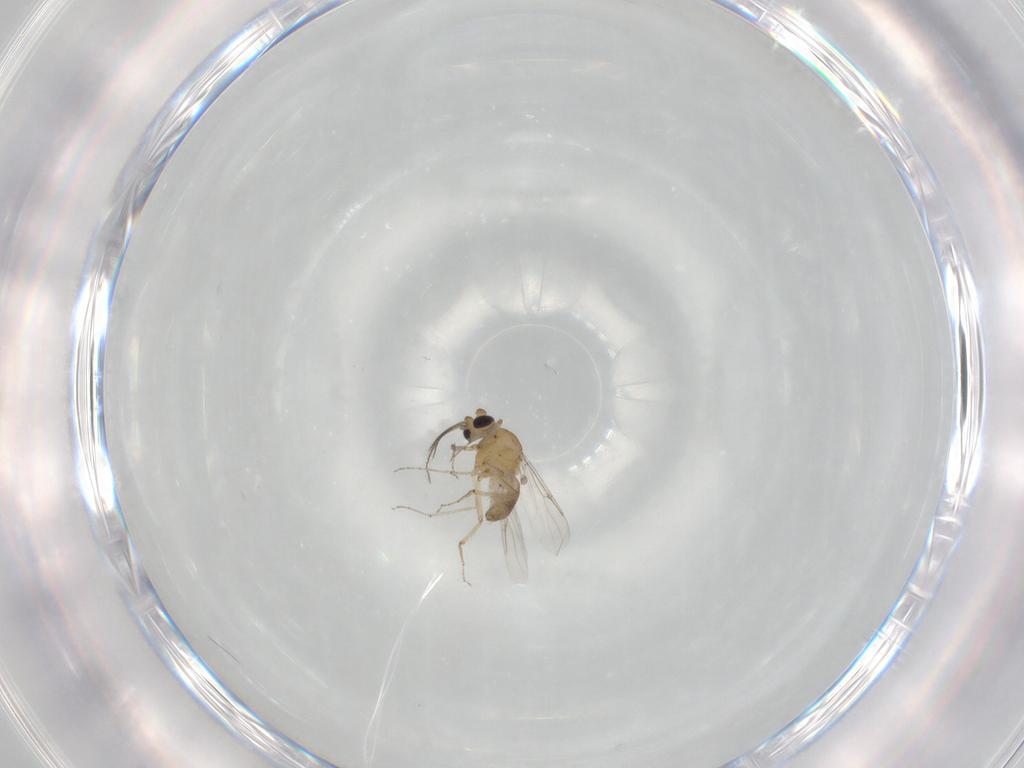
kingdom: Animalia
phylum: Arthropoda
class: Insecta
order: Diptera
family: Ceratopogonidae
